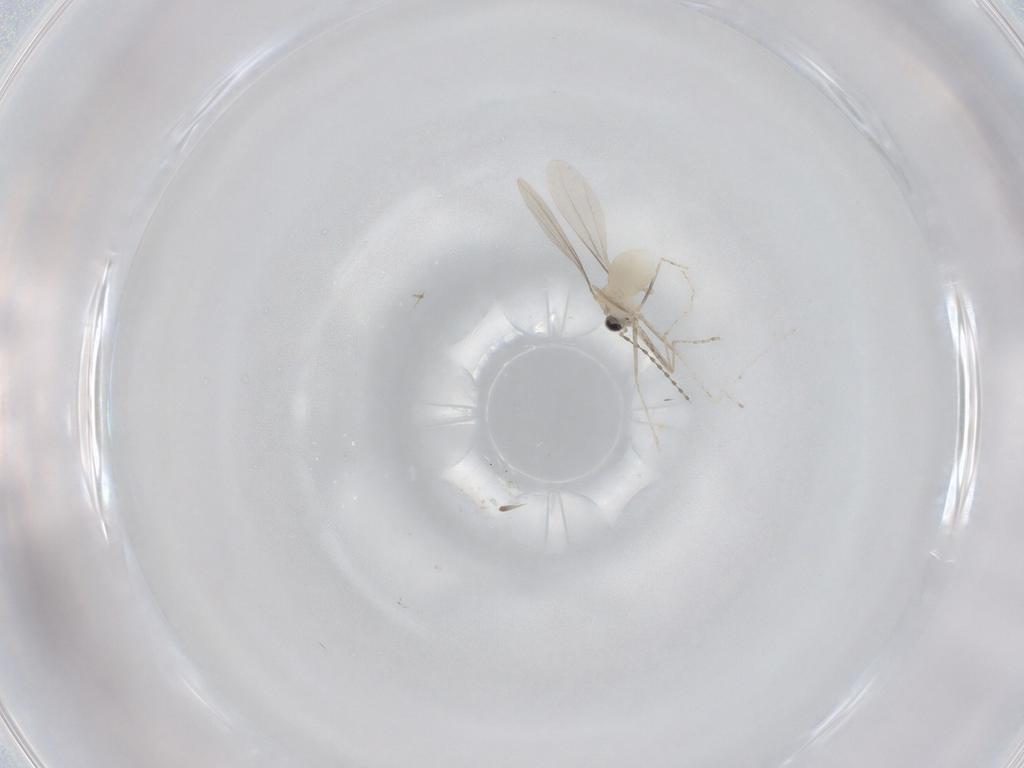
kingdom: Animalia
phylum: Arthropoda
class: Insecta
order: Diptera
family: Cecidomyiidae
